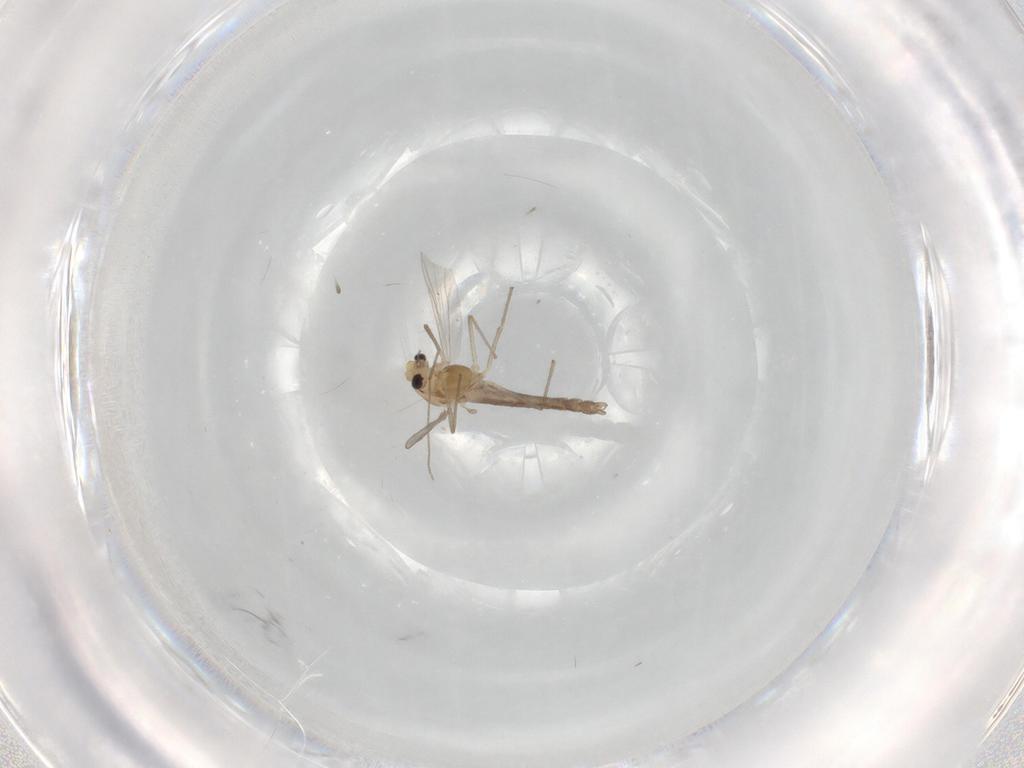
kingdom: Animalia
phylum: Arthropoda
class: Insecta
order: Diptera
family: Chironomidae
